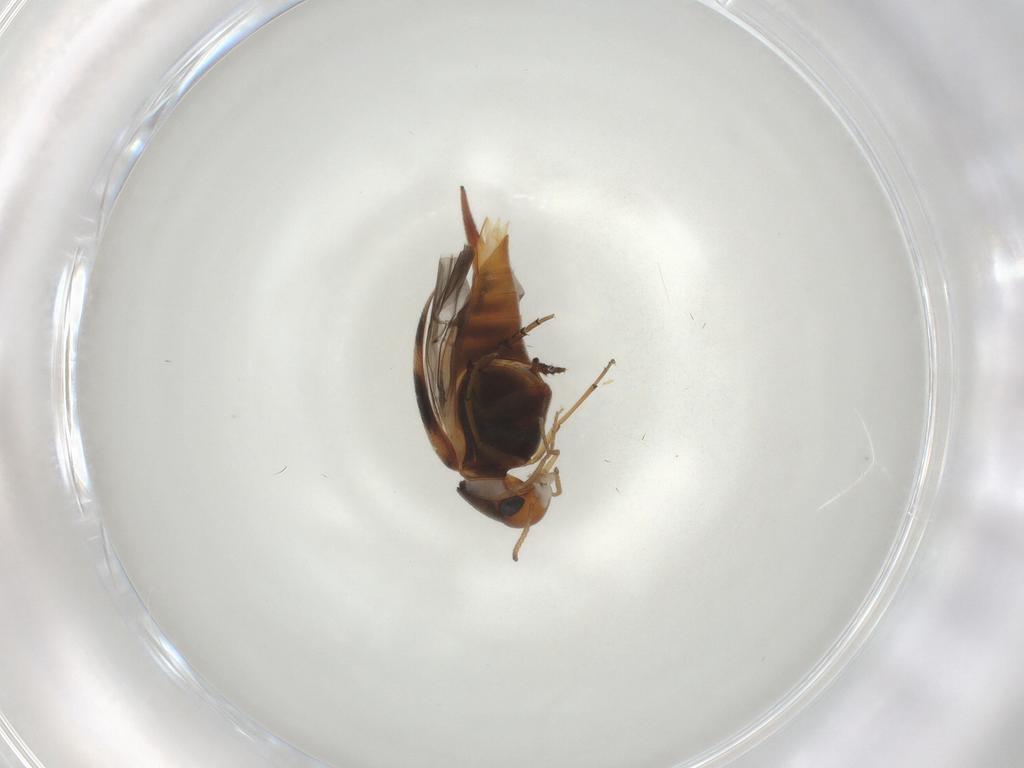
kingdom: Animalia
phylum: Arthropoda
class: Insecta
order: Coleoptera
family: Mordellidae
